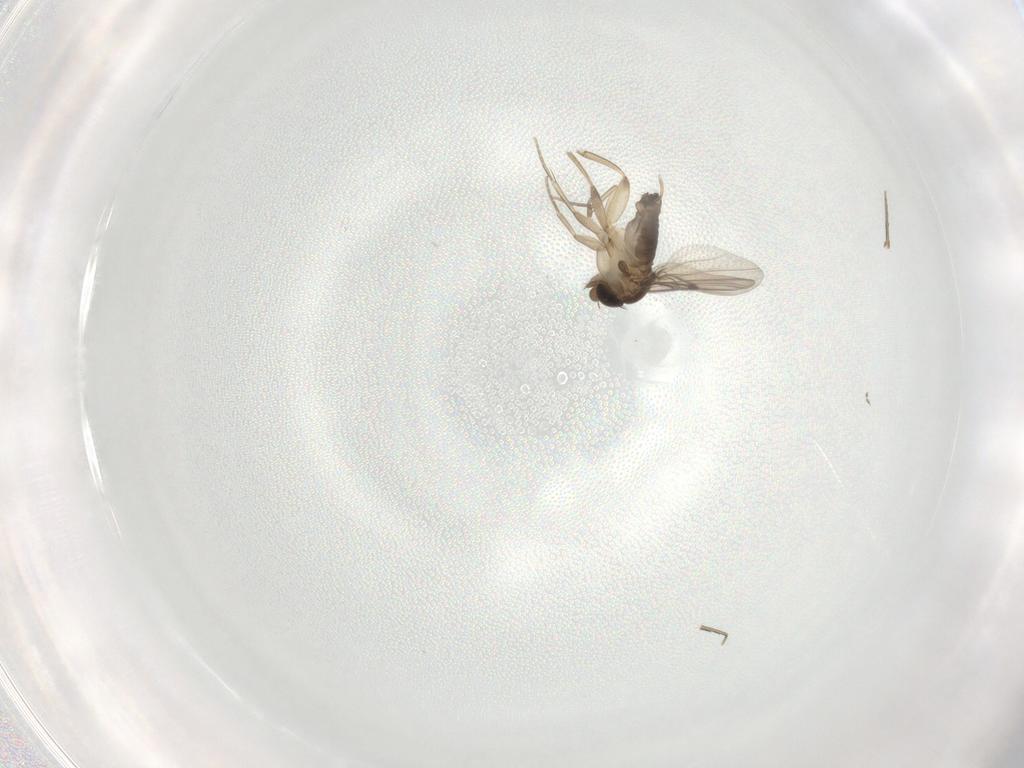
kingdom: Animalia
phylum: Arthropoda
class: Insecta
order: Diptera
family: Phoridae
